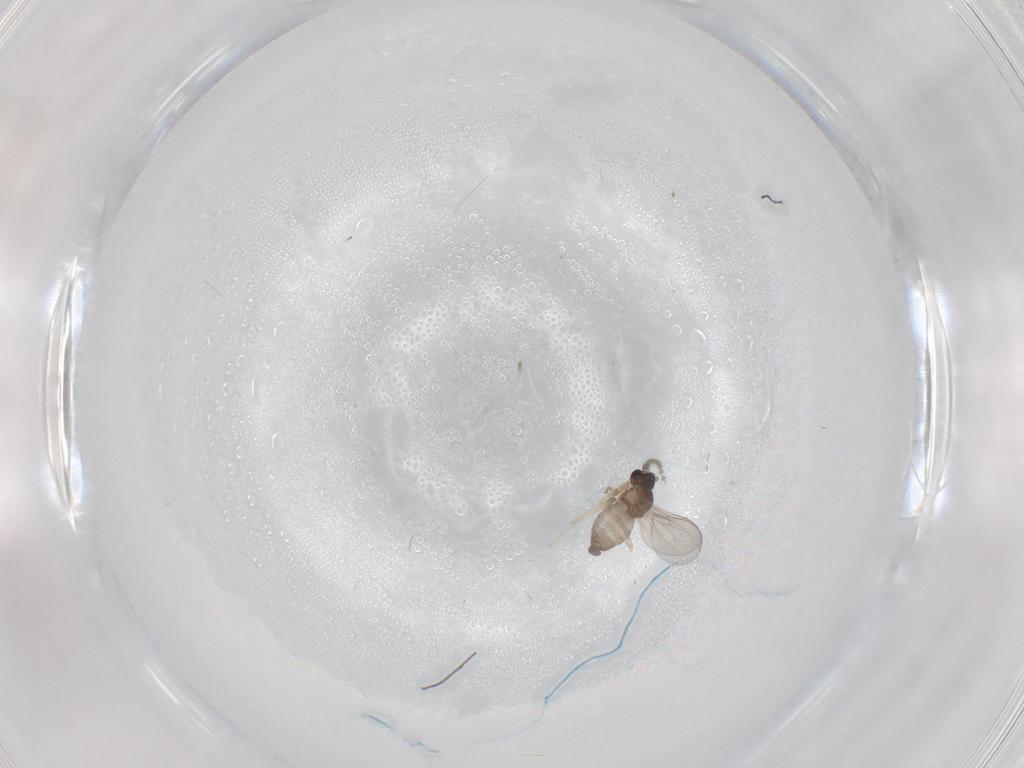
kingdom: Animalia
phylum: Arthropoda
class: Insecta
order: Diptera
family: Cecidomyiidae
